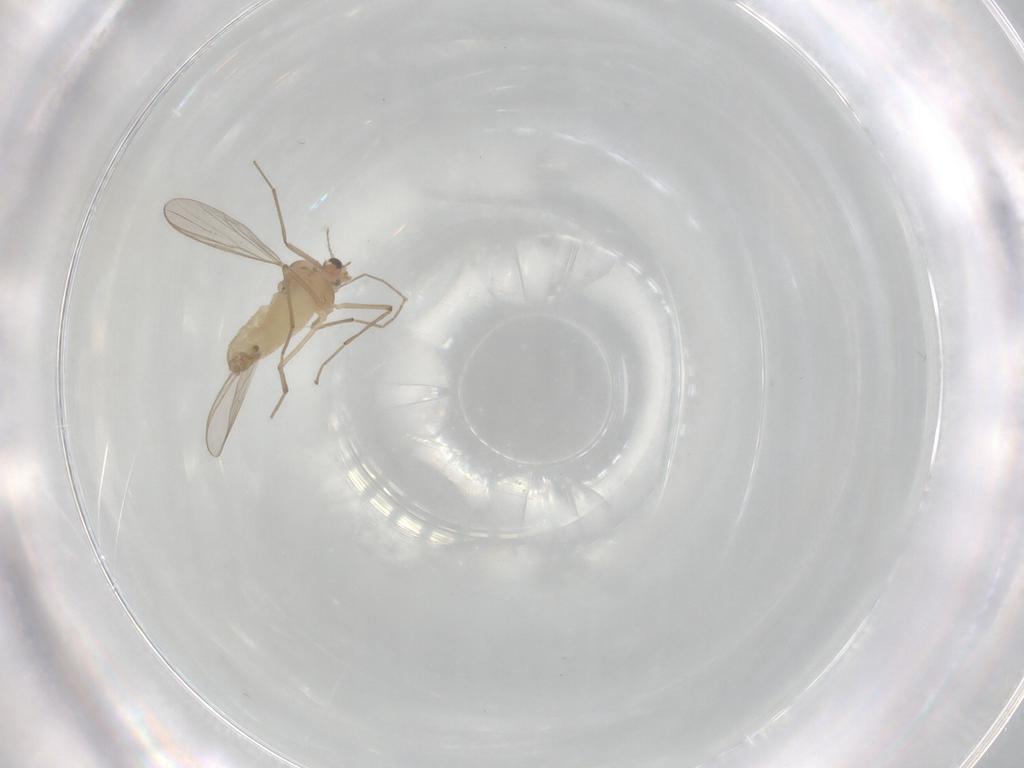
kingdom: Animalia
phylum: Arthropoda
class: Insecta
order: Diptera
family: Chironomidae
